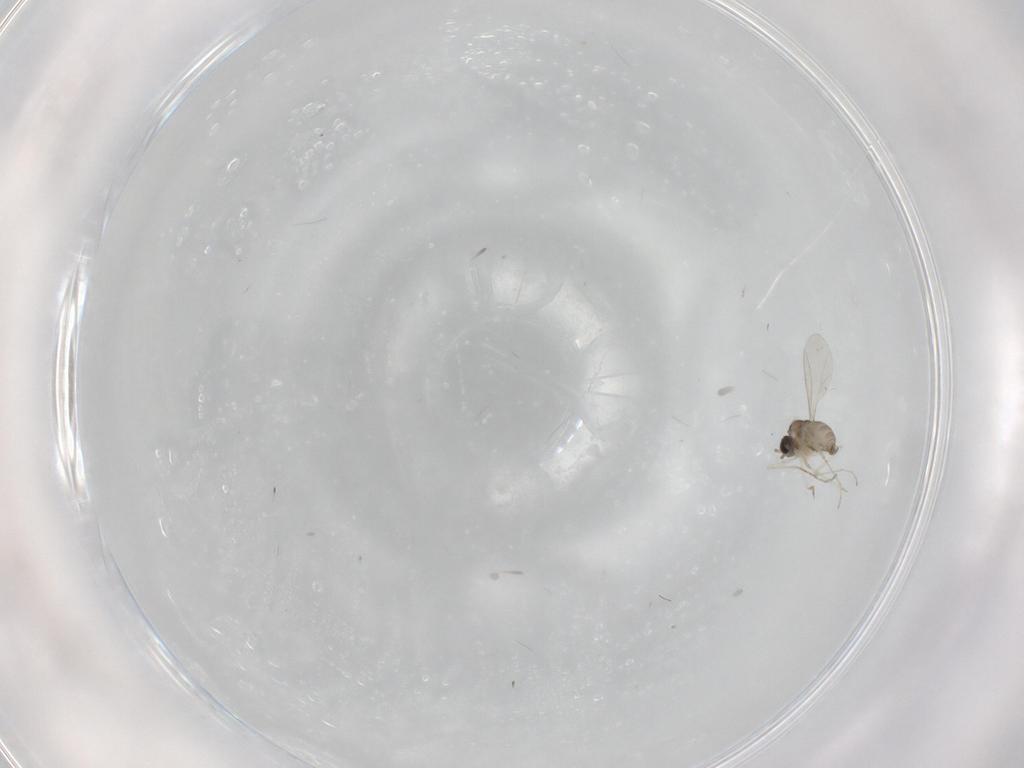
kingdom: Animalia
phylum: Arthropoda
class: Insecta
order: Diptera
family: Cecidomyiidae
